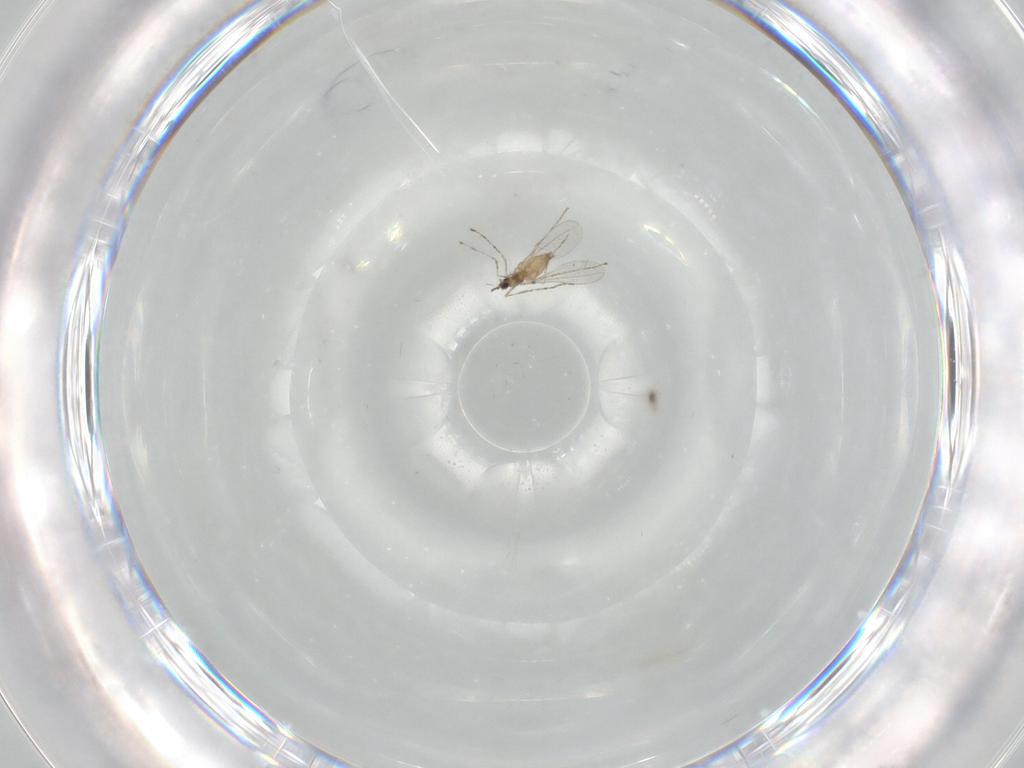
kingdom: Animalia
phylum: Arthropoda
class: Insecta
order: Diptera
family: Cecidomyiidae
